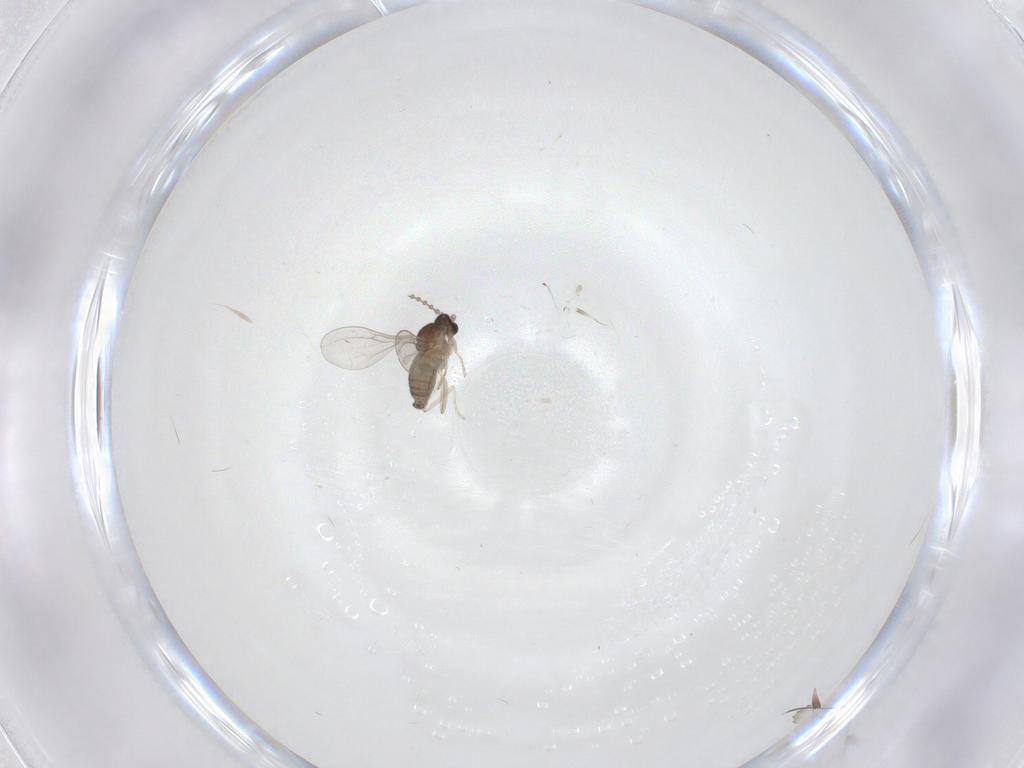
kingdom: Animalia
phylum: Arthropoda
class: Insecta
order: Diptera
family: Cecidomyiidae
